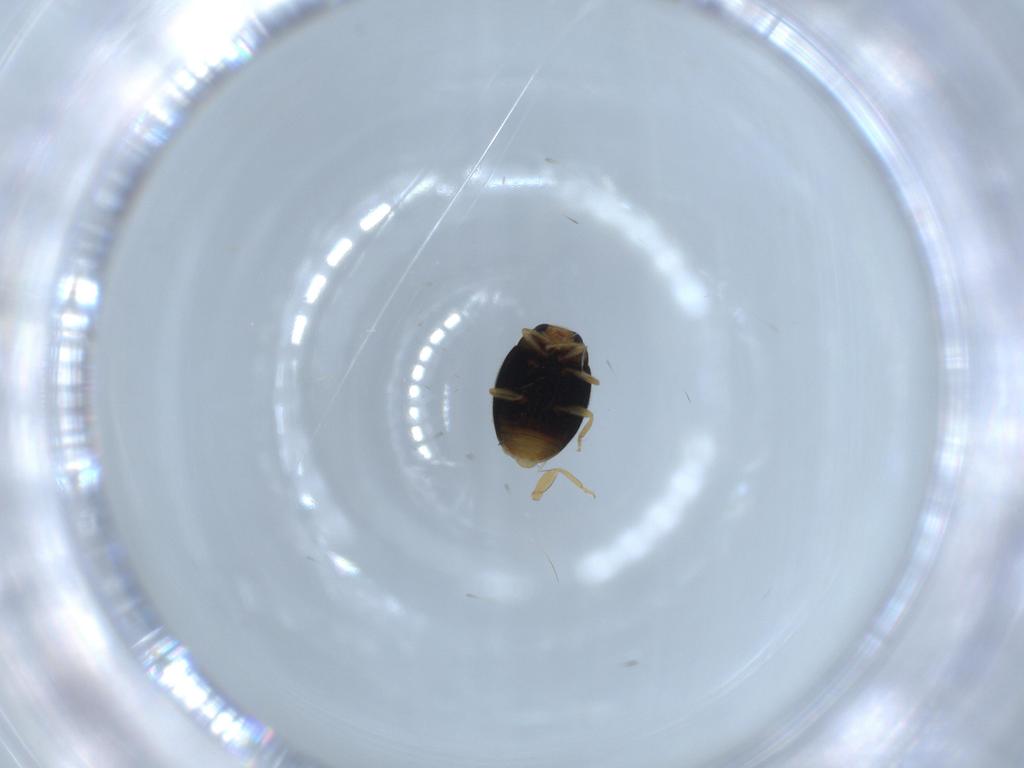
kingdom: Animalia
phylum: Arthropoda
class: Insecta
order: Coleoptera
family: Coccinellidae
